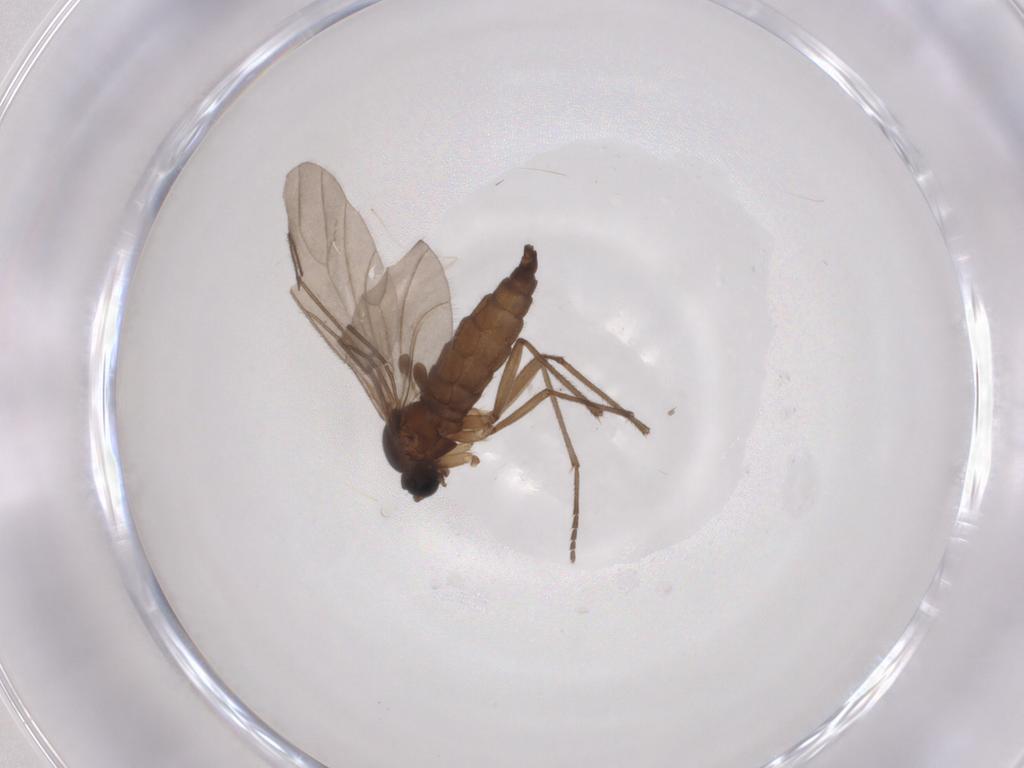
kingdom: Animalia
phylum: Arthropoda
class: Insecta
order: Diptera
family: Sciaridae
